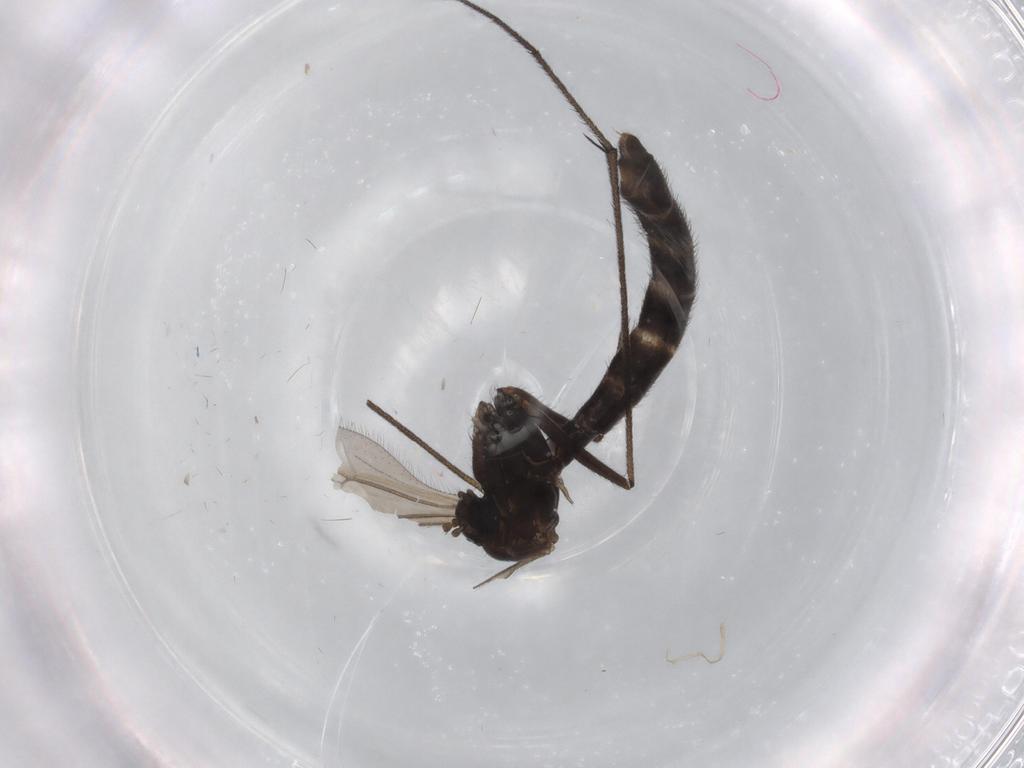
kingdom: Animalia
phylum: Arthropoda
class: Insecta
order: Diptera
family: Ditomyiidae
